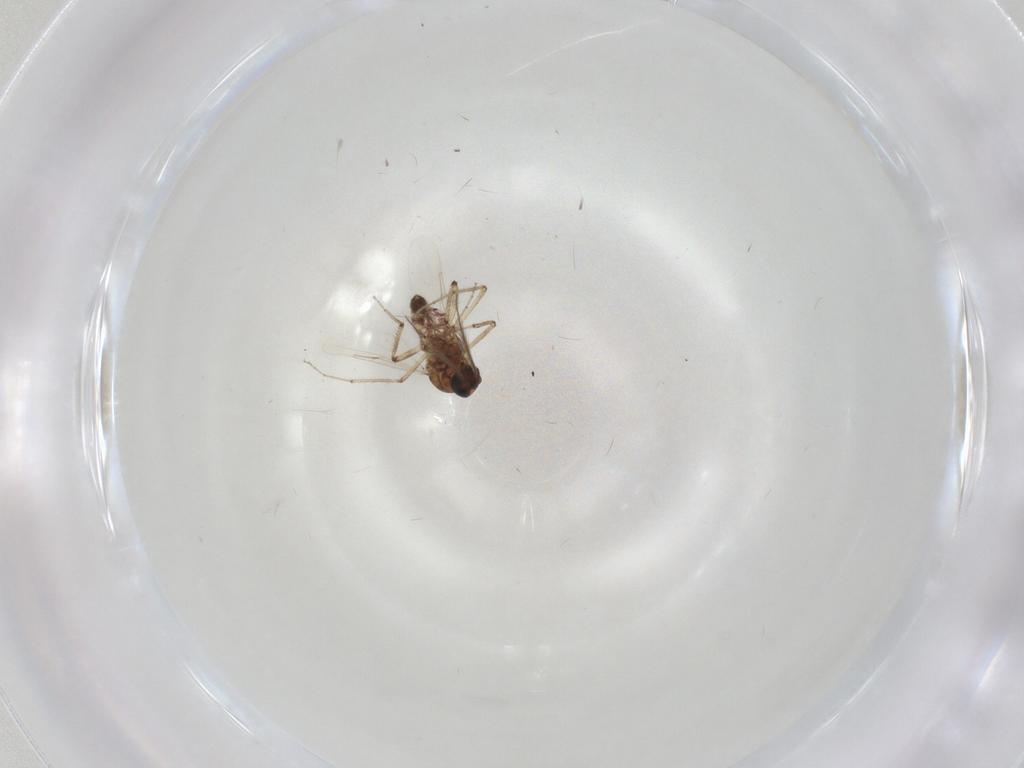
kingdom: Animalia
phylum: Arthropoda
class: Insecta
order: Diptera
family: Ceratopogonidae
